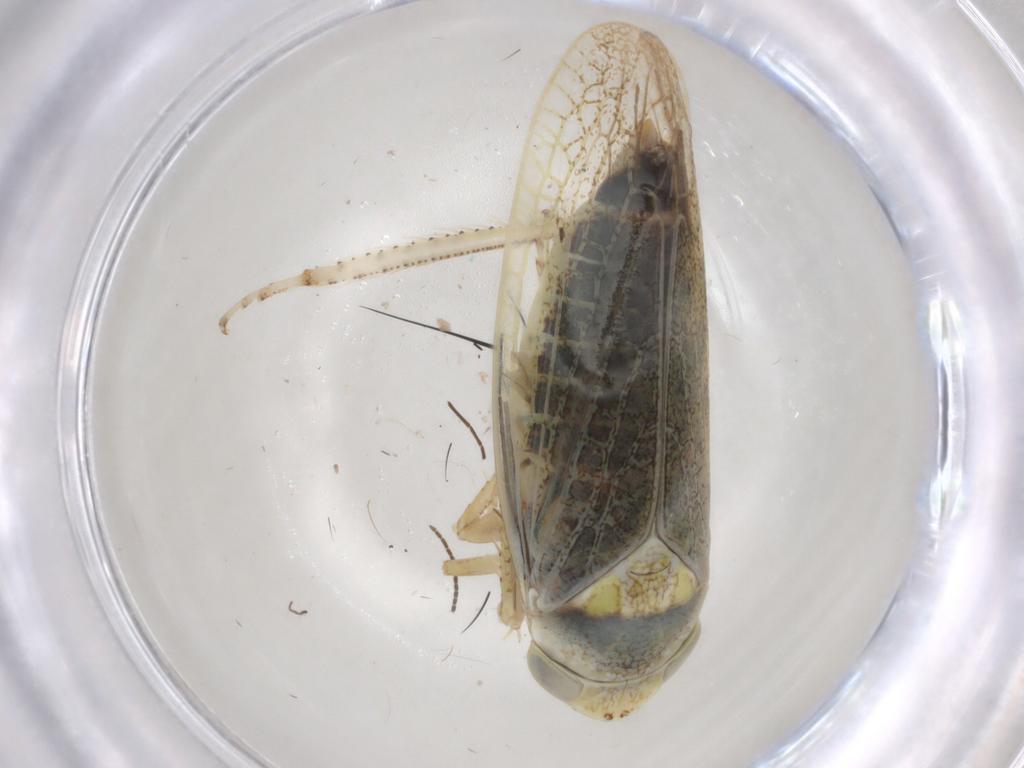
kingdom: Animalia
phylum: Arthropoda
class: Insecta
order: Hemiptera
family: Cicadellidae
